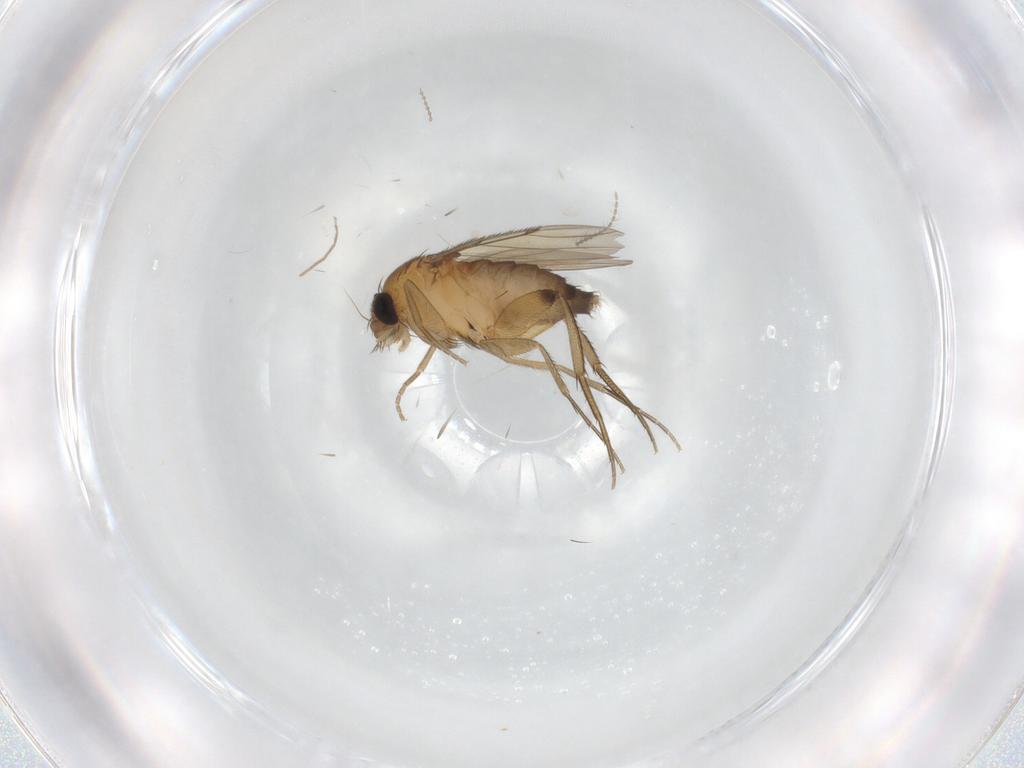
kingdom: Animalia
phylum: Arthropoda
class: Insecta
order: Diptera
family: Phoridae
